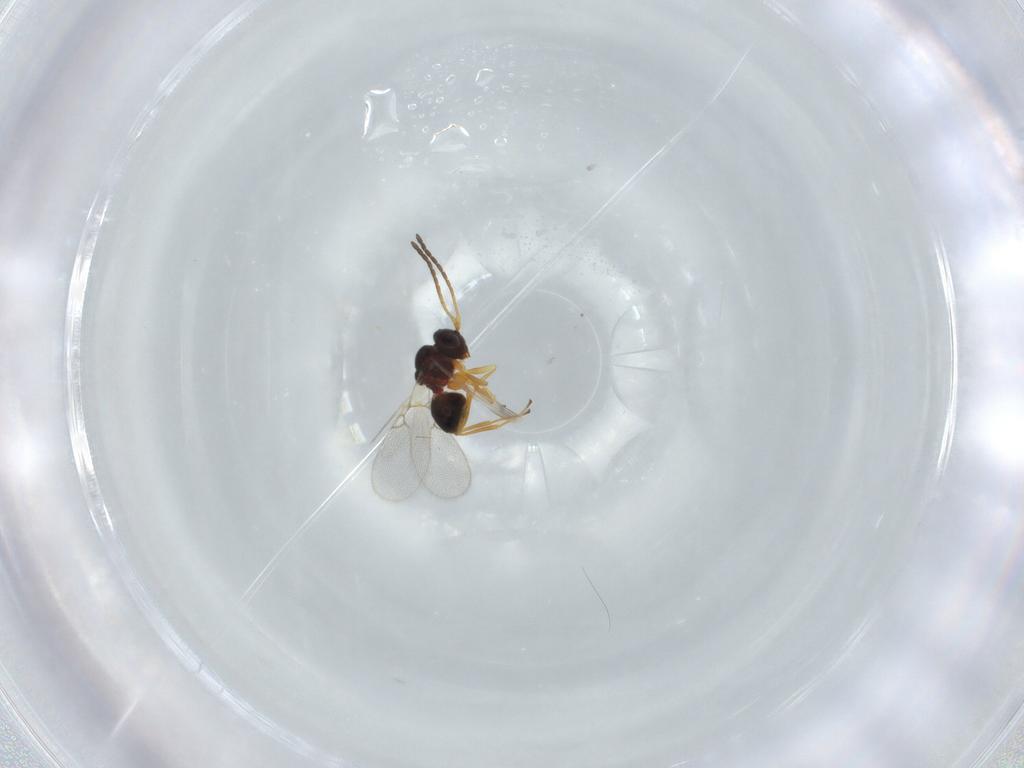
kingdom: Animalia
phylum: Arthropoda
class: Insecta
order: Hymenoptera
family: Figitidae
